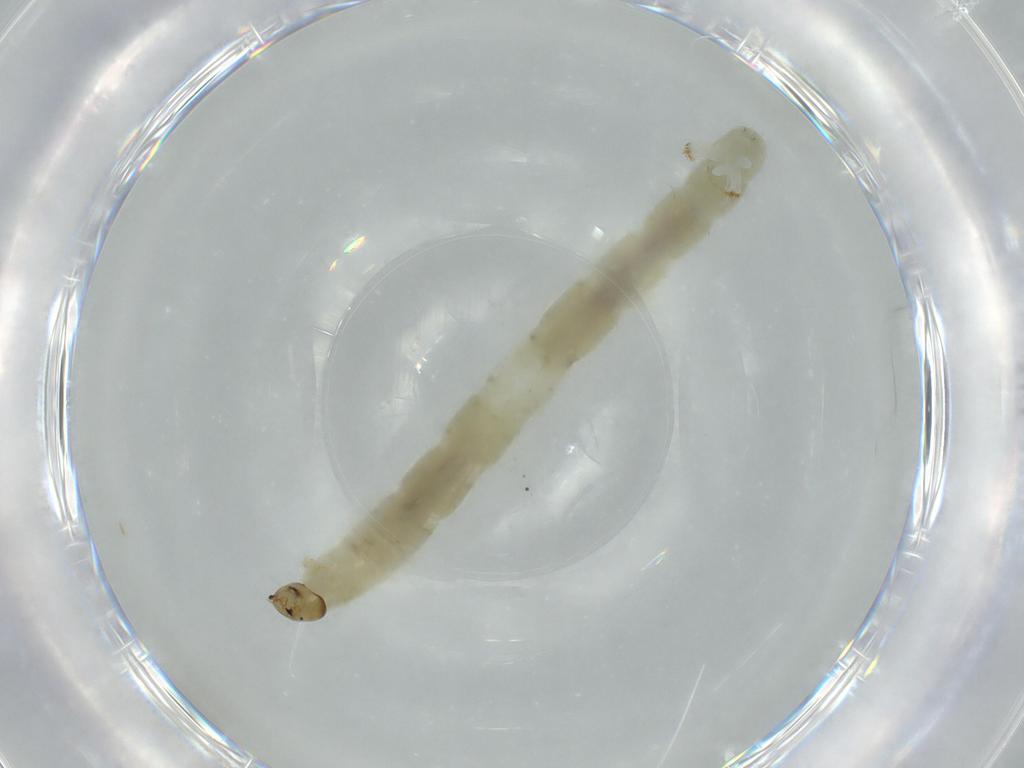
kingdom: Animalia
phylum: Arthropoda
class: Insecta
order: Diptera
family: Chironomidae
